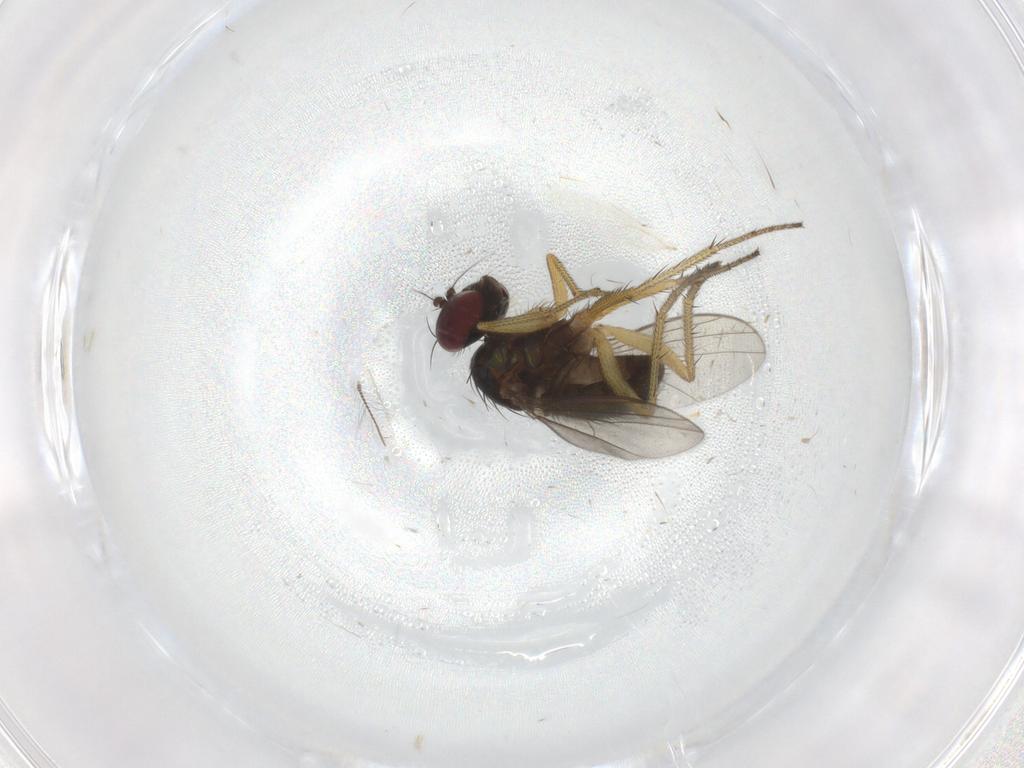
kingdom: Animalia
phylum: Arthropoda
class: Insecta
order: Diptera
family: Dolichopodidae
